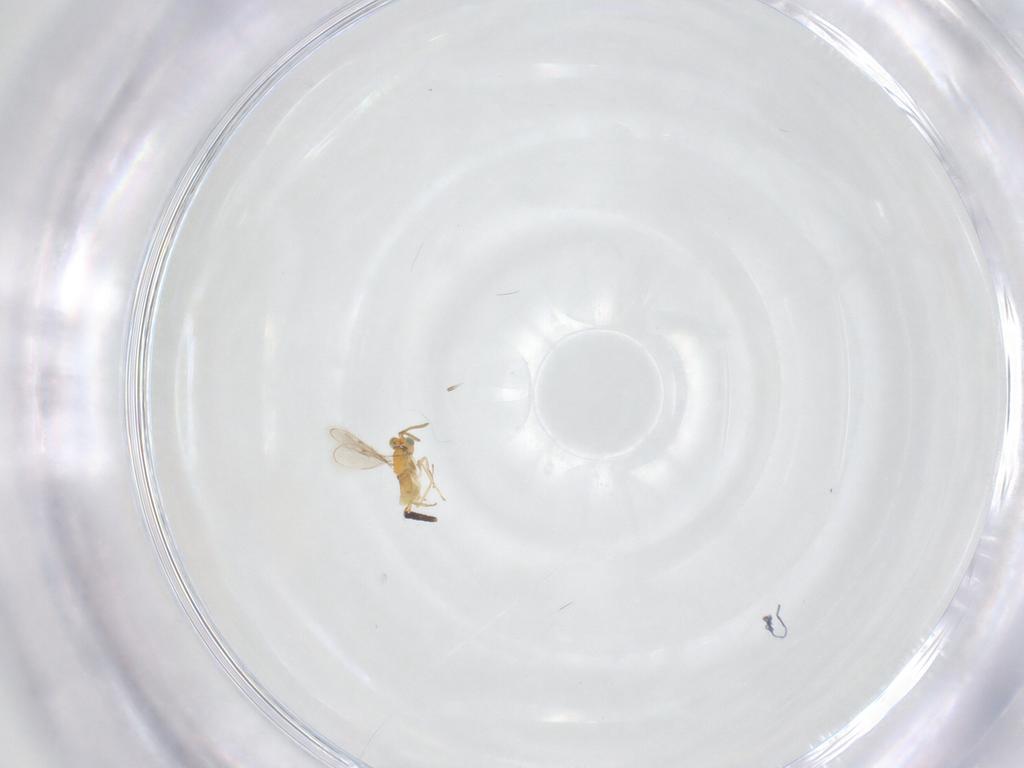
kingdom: Animalia
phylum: Arthropoda
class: Insecta
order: Hymenoptera
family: Aphelinidae
